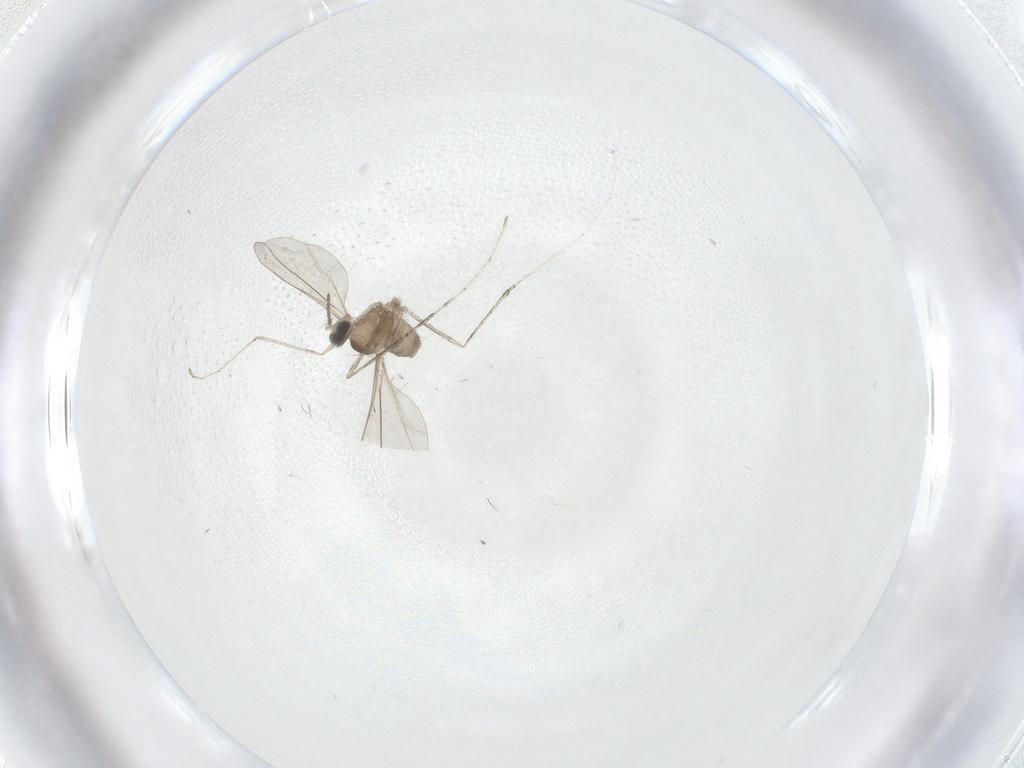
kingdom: Animalia
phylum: Arthropoda
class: Insecta
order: Diptera
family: Cecidomyiidae
